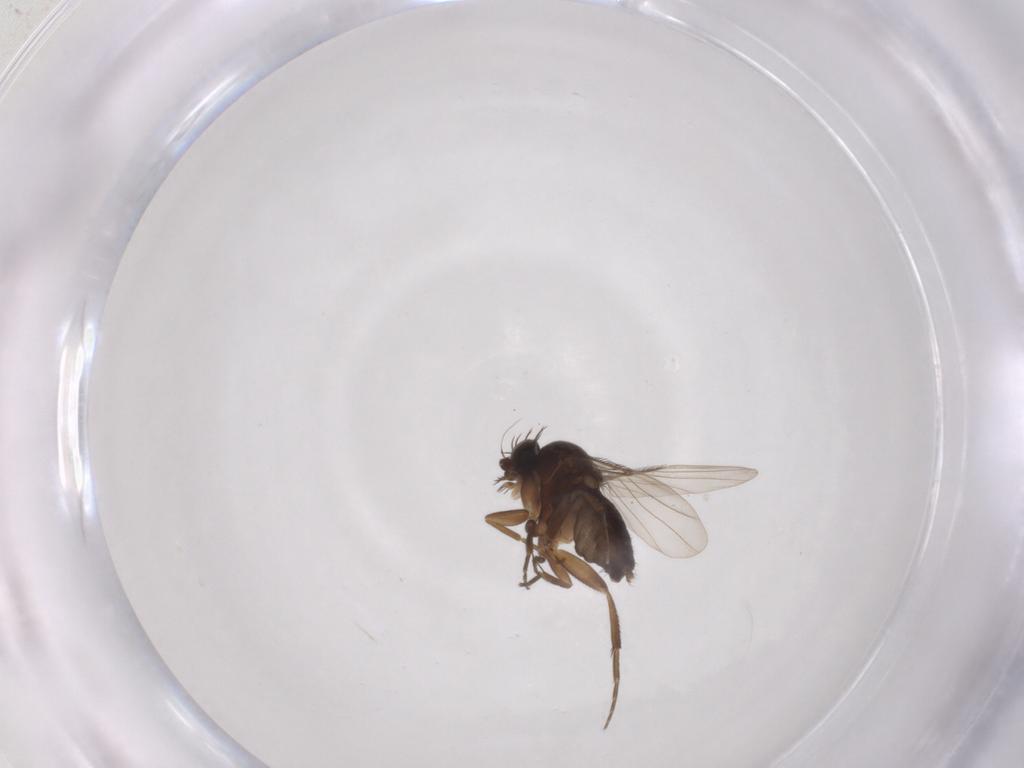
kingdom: Animalia
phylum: Arthropoda
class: Insecta
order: Diptera
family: Phoridae
